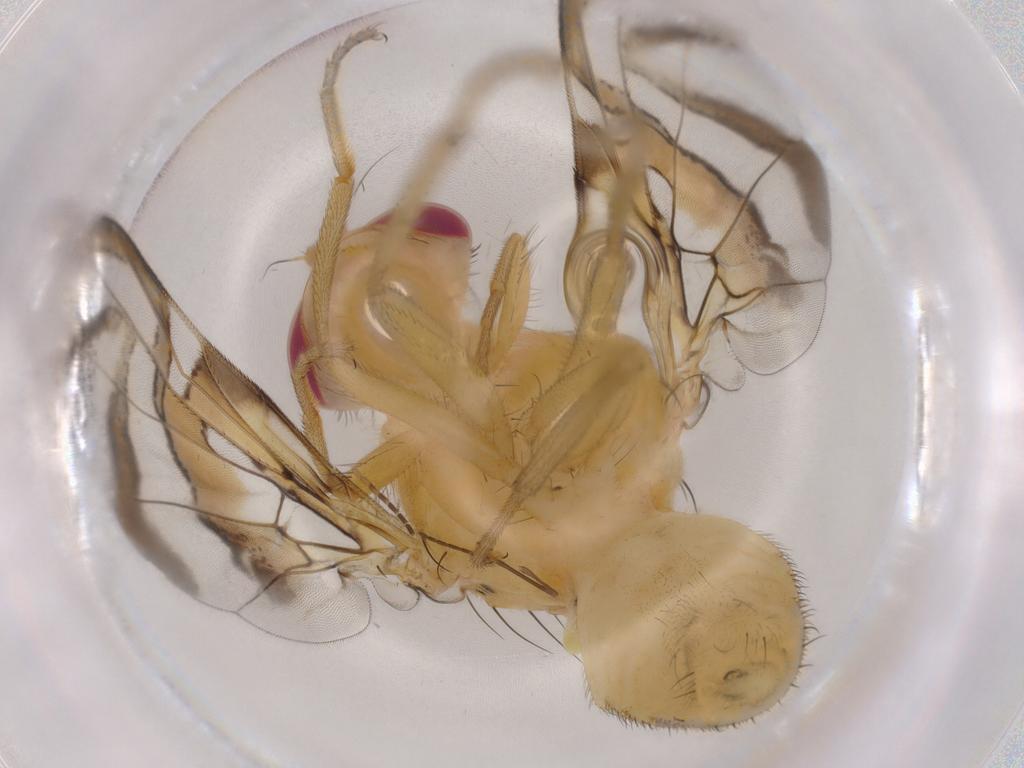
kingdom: Animalia
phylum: Arthropoda
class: Insecta
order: Diptera
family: Tephritidae
